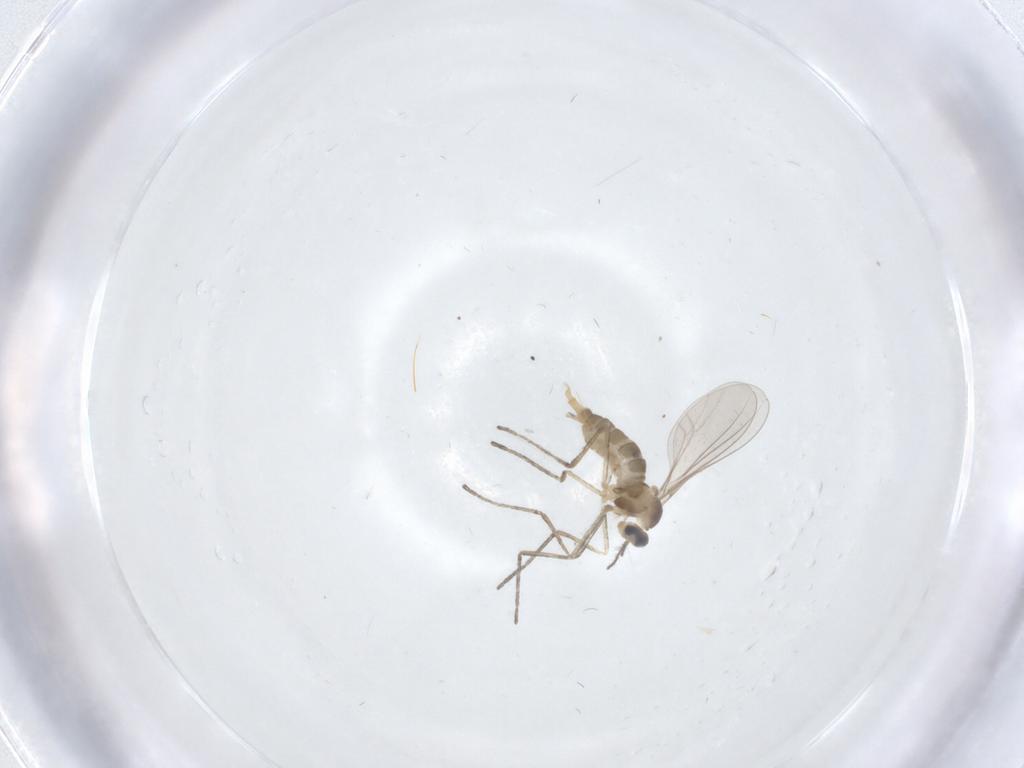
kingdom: Animalia
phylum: Arthropoda
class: Insecta
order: Diptera
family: Cecidomyiidae
